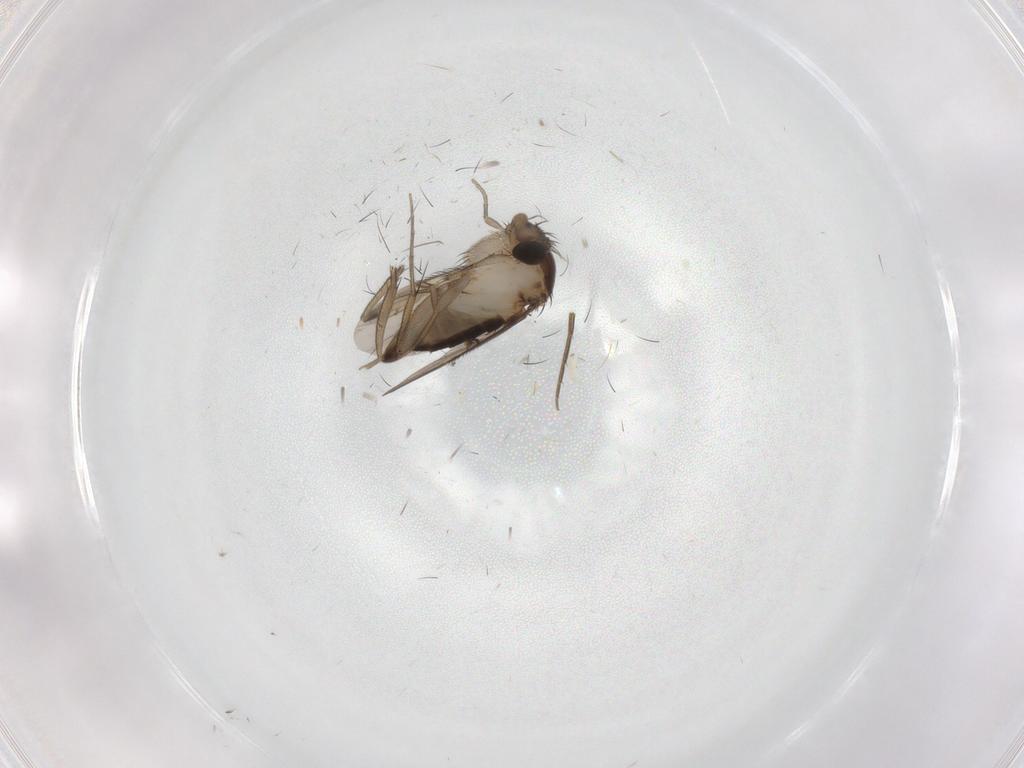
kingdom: Animalia
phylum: Arthropoda
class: Insecta
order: Diptera
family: Phoridae
